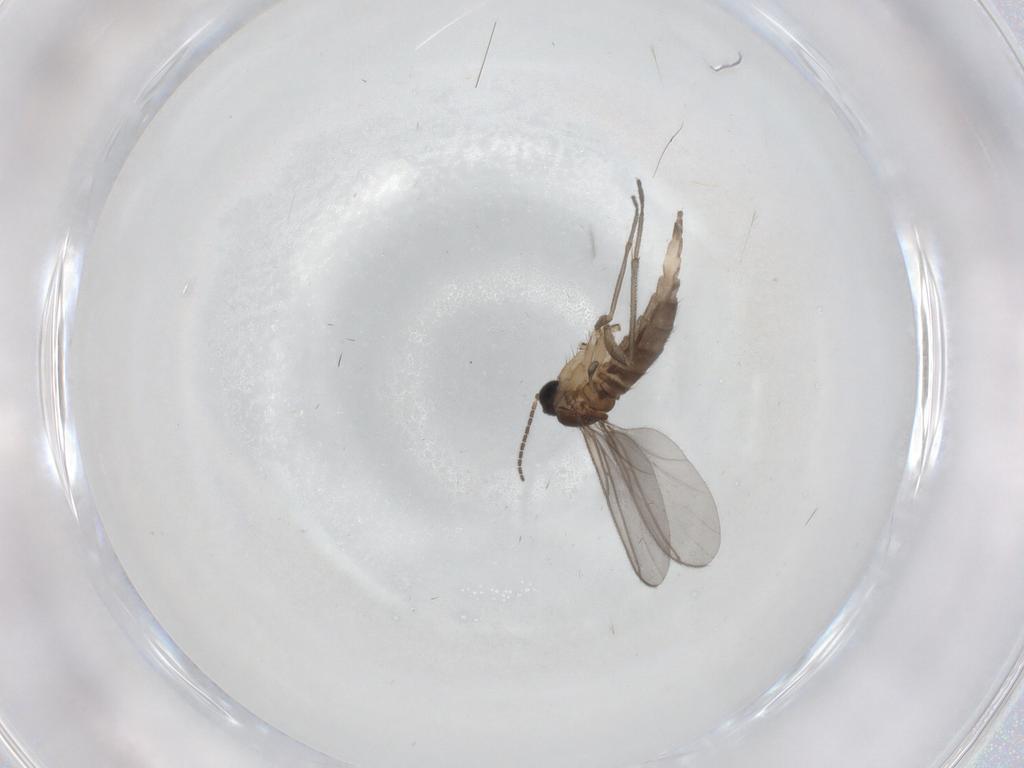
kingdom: Animalia
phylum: Arthropoda
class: Insecta
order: Diptera
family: Sciaridae
